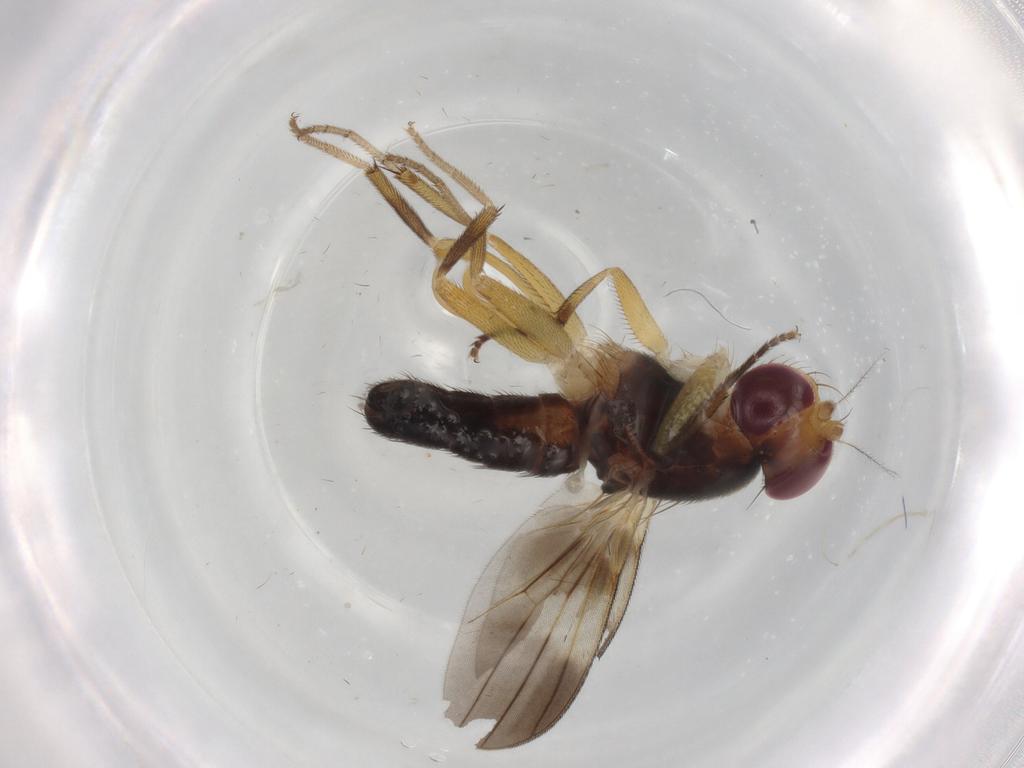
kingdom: Animalia
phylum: Arthropoda
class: Insecta
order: Diptera
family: Clusiidae
